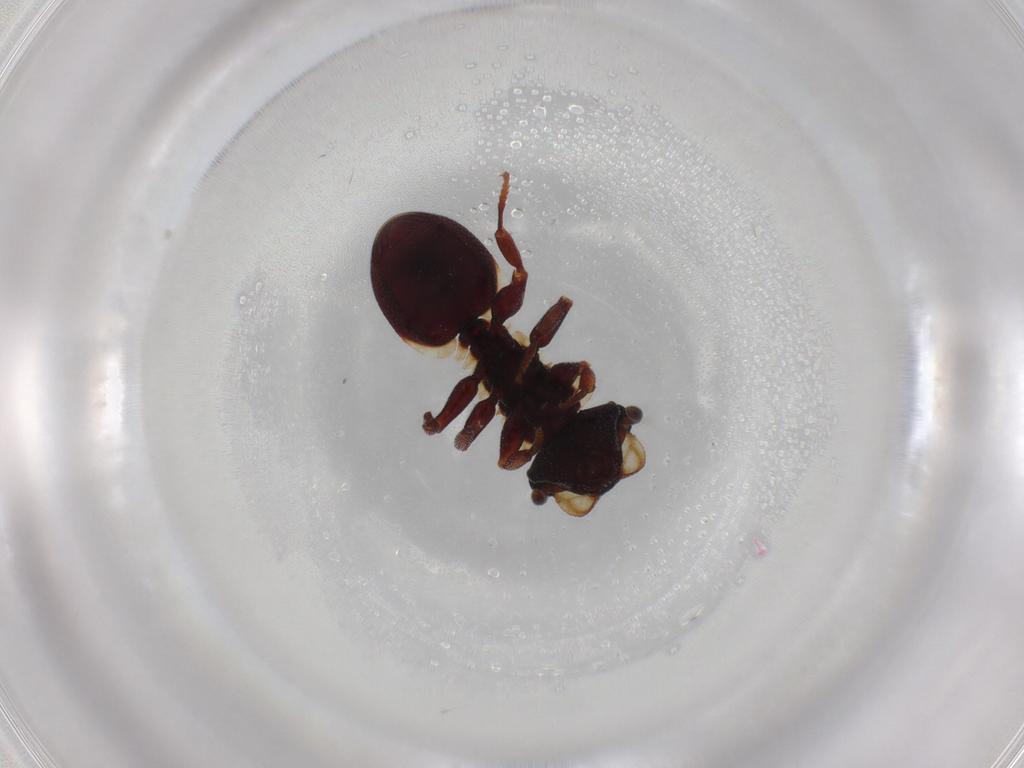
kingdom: Animalia
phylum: Arthropoda
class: Insecta
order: Hymenoptera
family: Formicidae
